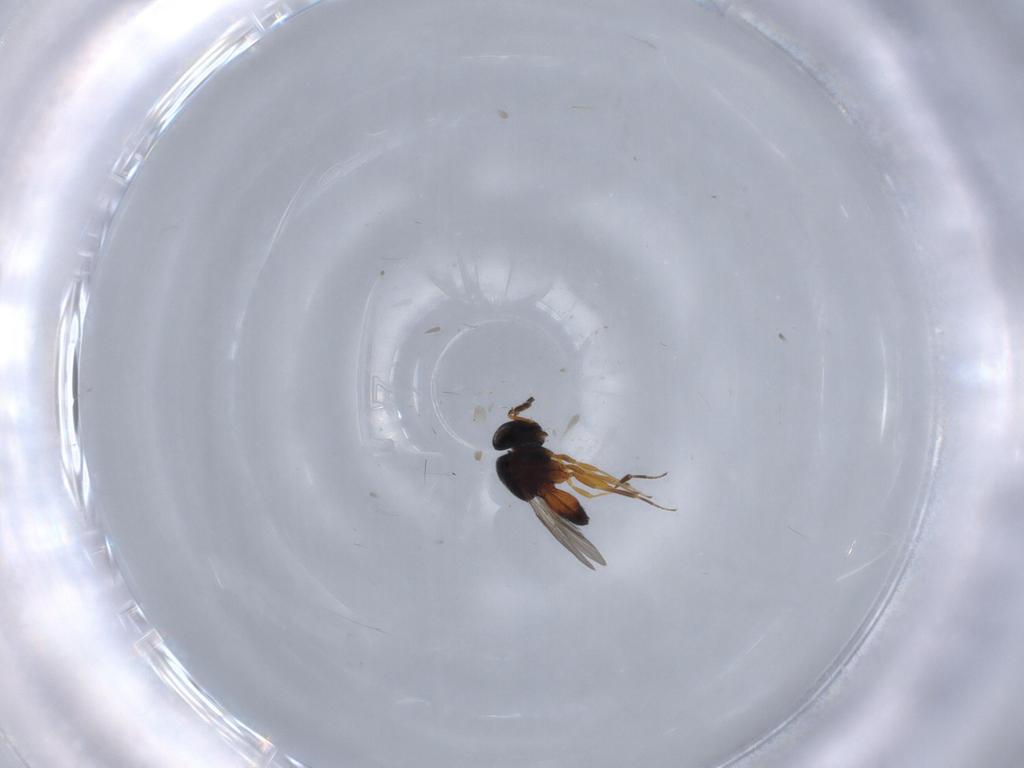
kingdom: Animalia
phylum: Arthropoda
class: Insecta
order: Hymenoptera
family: Scelionidae
